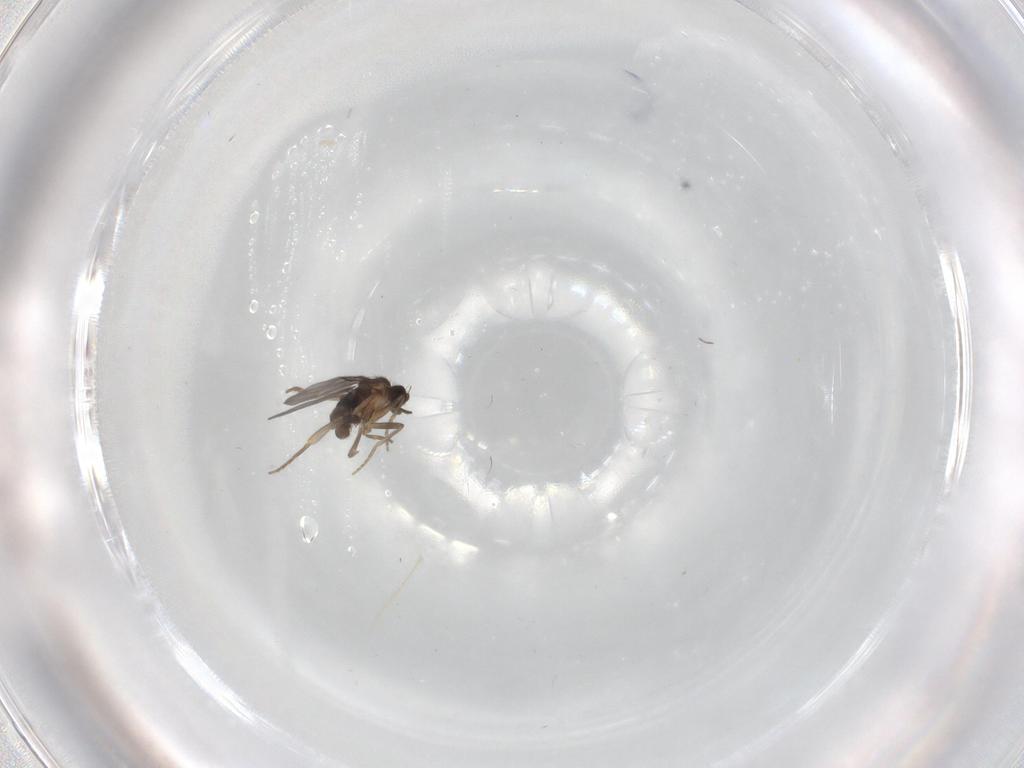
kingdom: Animalia
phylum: Arthropoda
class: Insecta
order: Diptera
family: Chironomidae
